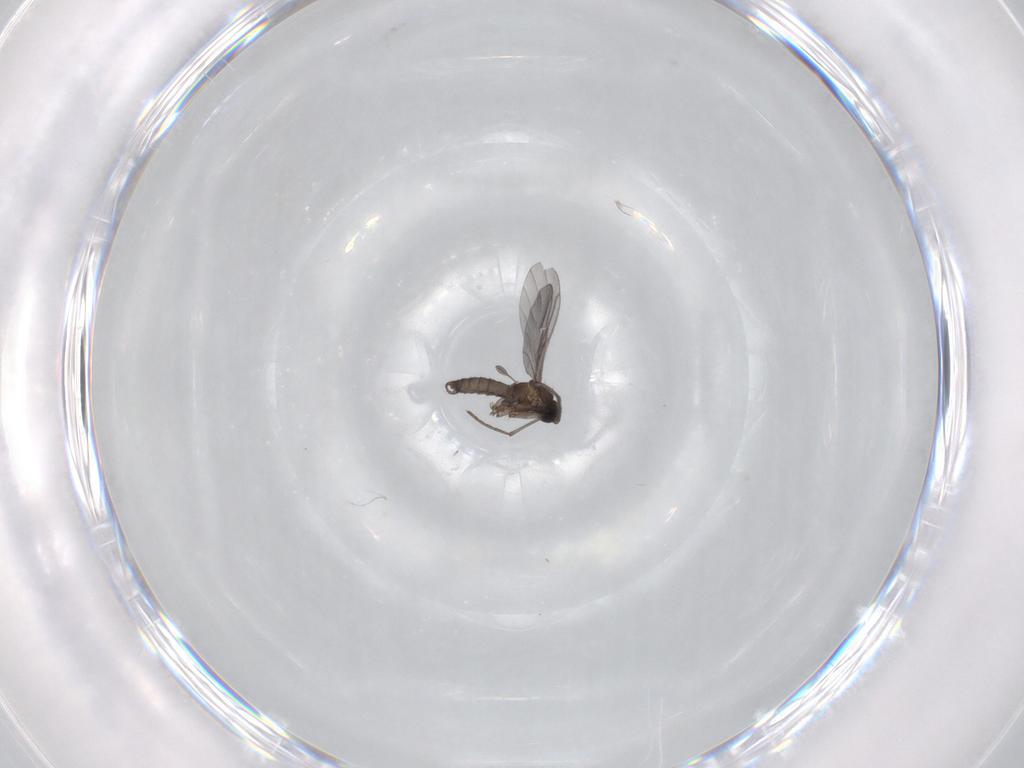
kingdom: Animalia
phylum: Arthropoda
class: Insecta
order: Diptera
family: Sciaridae
